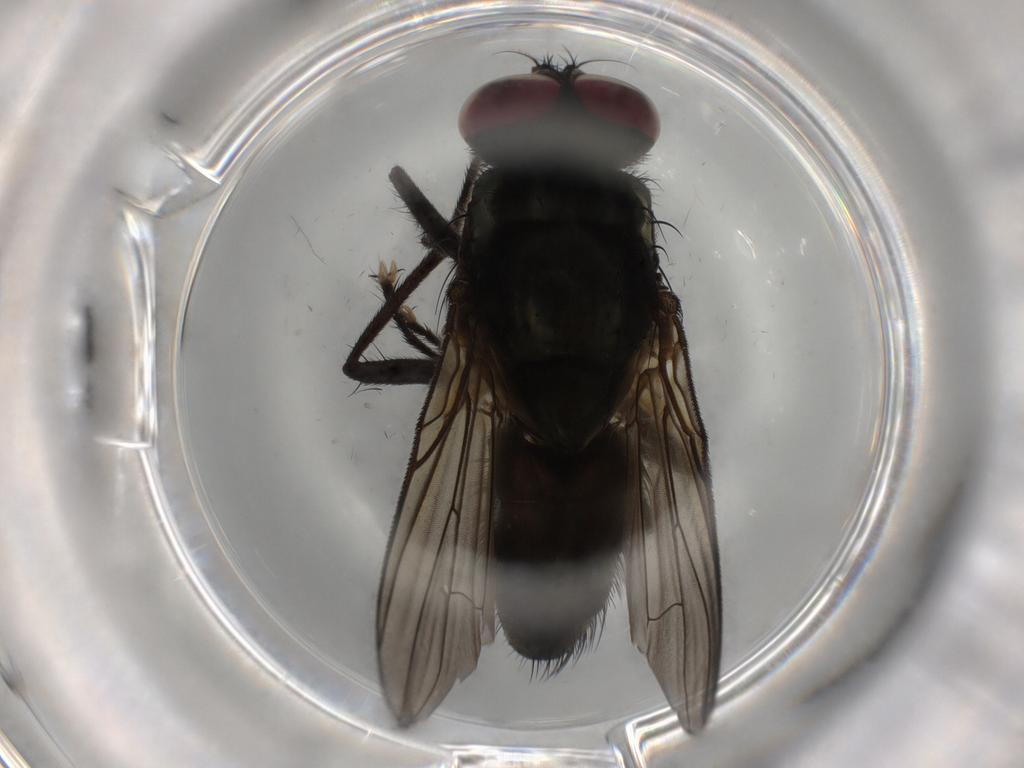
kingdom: Animalia
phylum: Arthropoda
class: Insecta
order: Diptera
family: Muscidae
